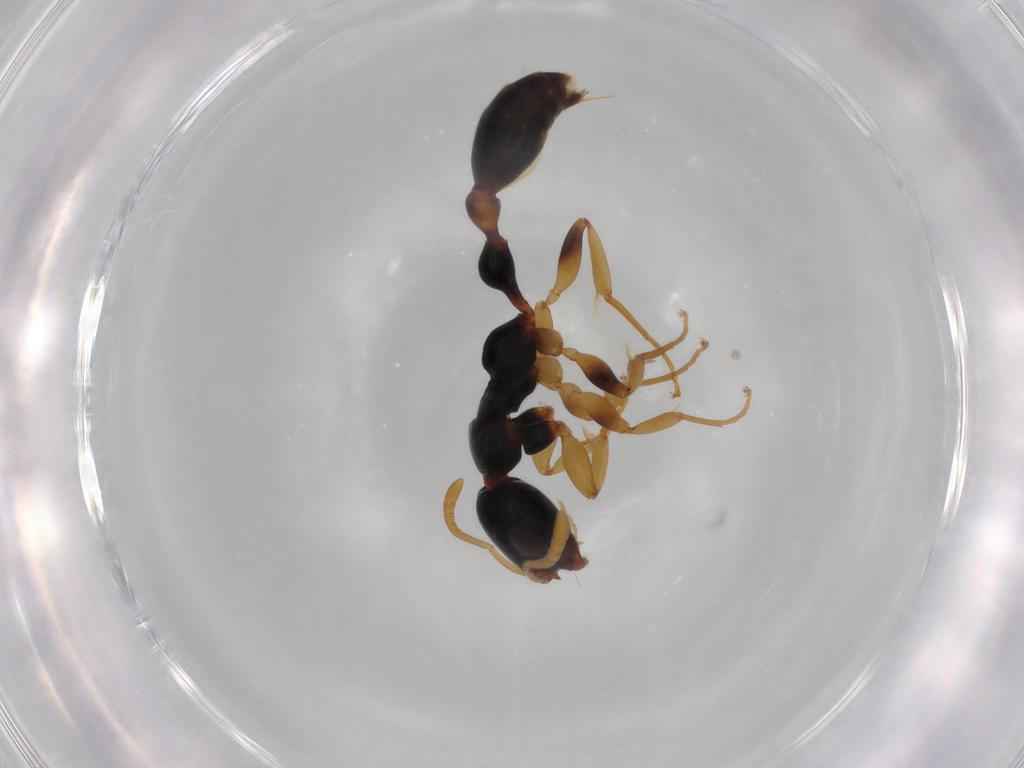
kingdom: Animalia
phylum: Arthropoda
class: Insecta
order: Hymenoptera
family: Formicidae
